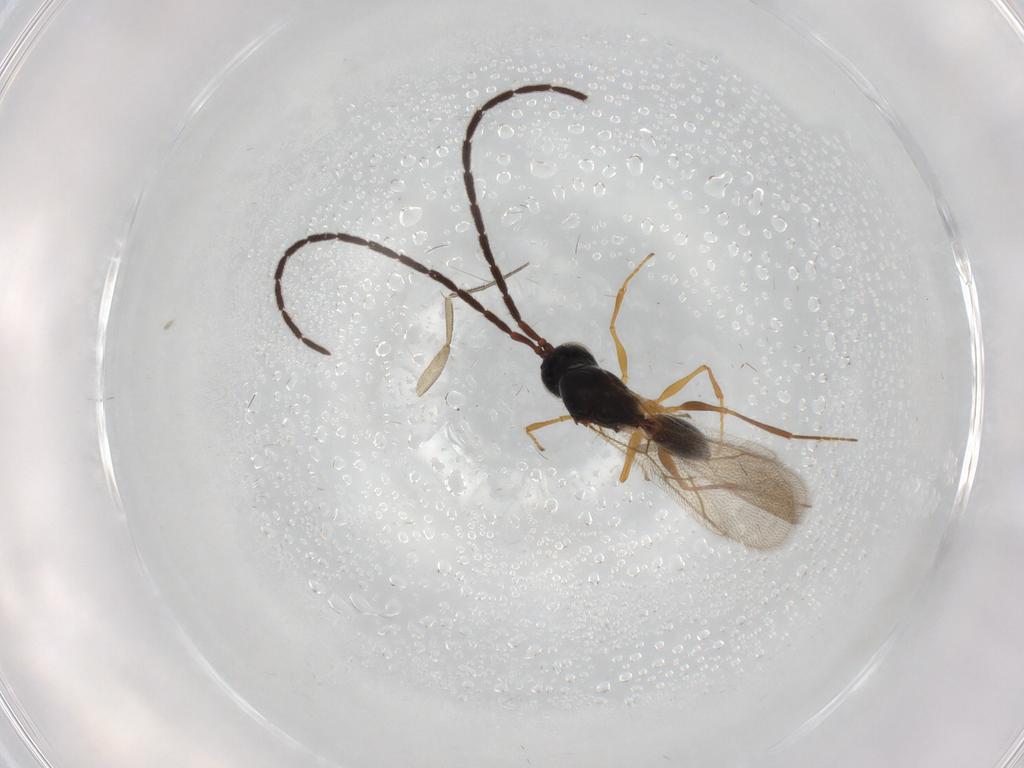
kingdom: Animalia
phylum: Arthropoda
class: Insecta
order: Hymenoptera
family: Figitidae
